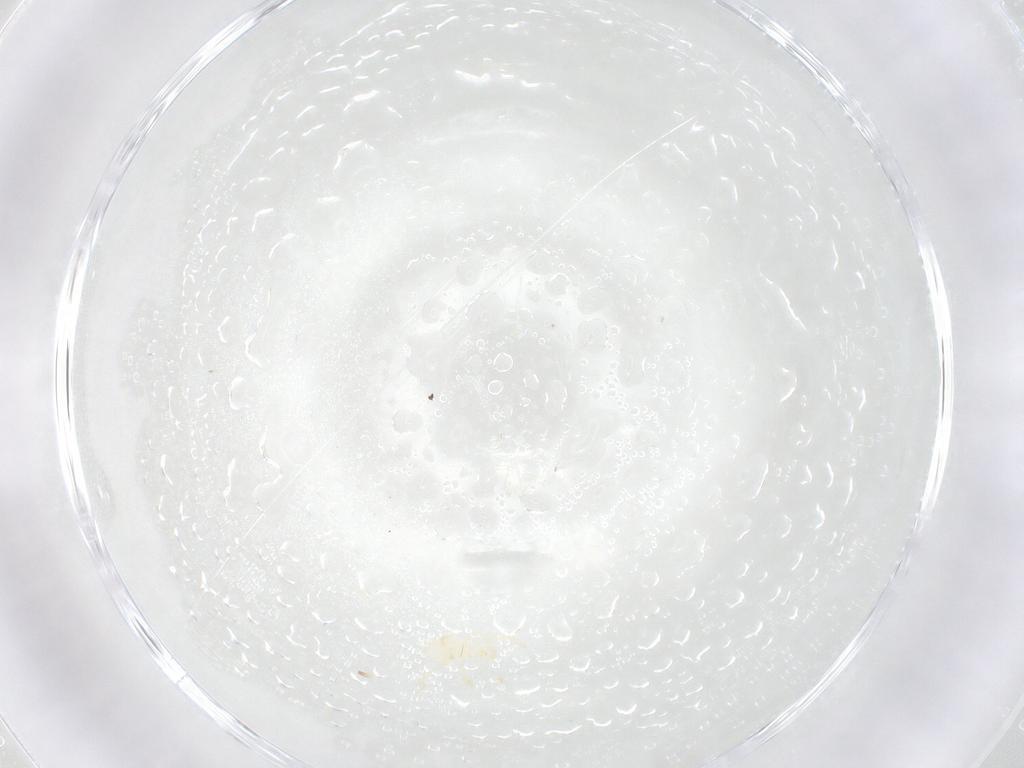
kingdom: Animalia
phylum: Arthropoda
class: Arachnida
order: Trombidiformes
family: Erythraeidae
